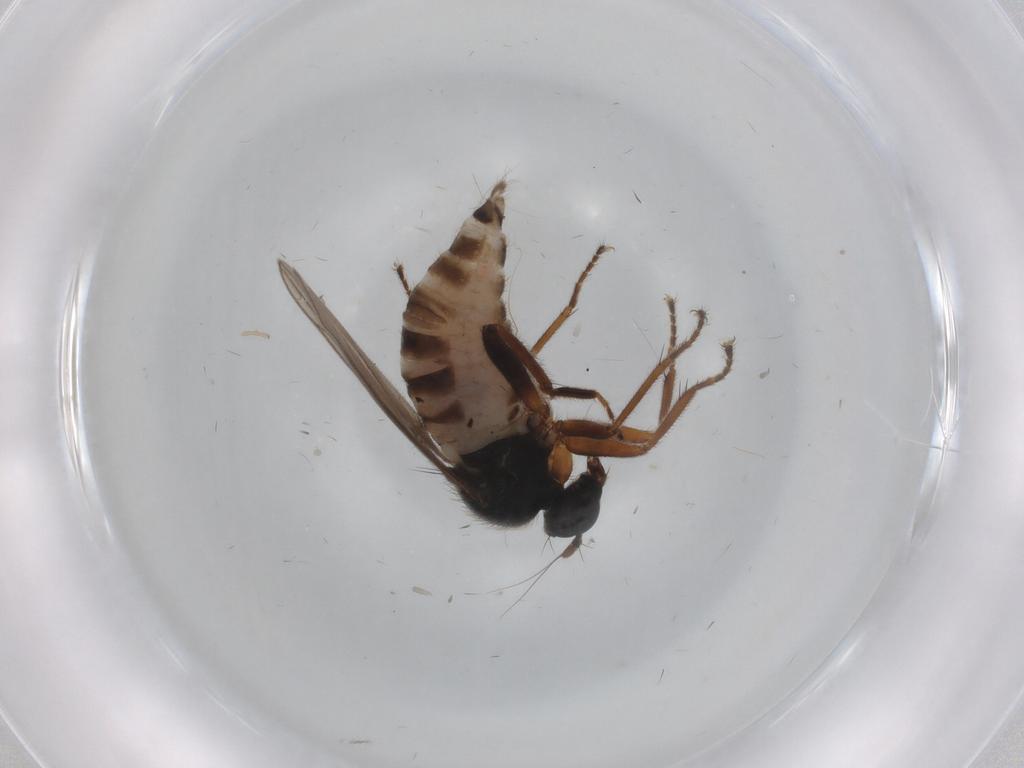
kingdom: Animalia
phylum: Arthropoda
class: Insecta
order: Diptera
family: Hybotidae
